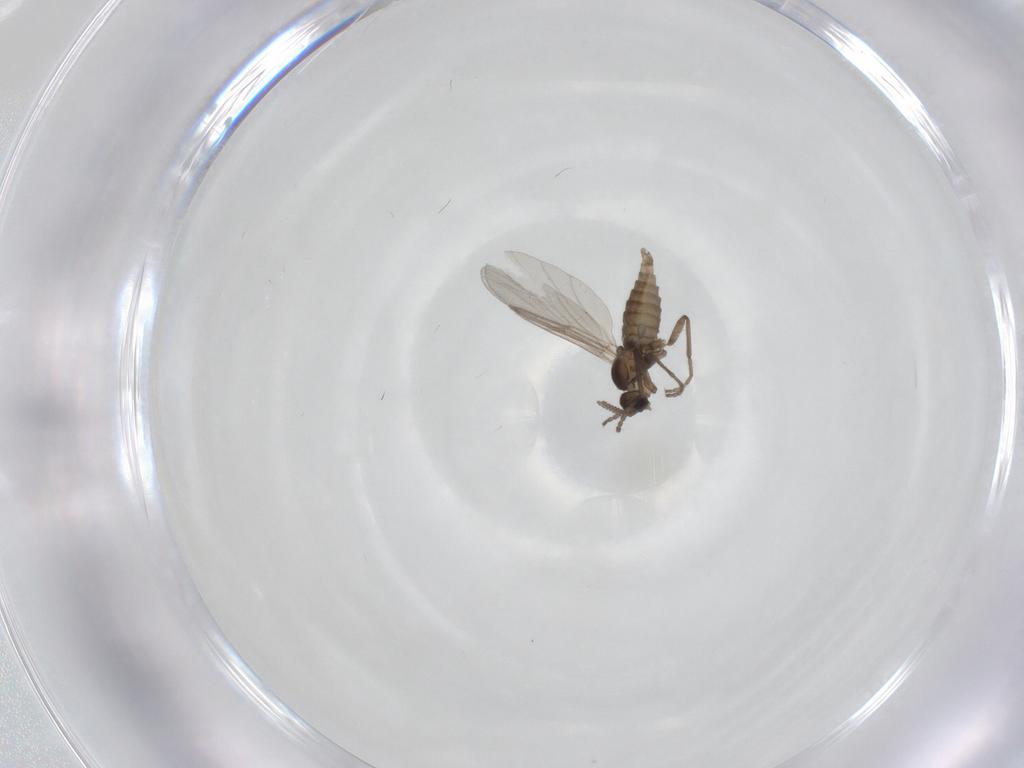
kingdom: Animalia
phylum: Arthropoda
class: Insecta
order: Diptera
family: Cecidomyiidae
